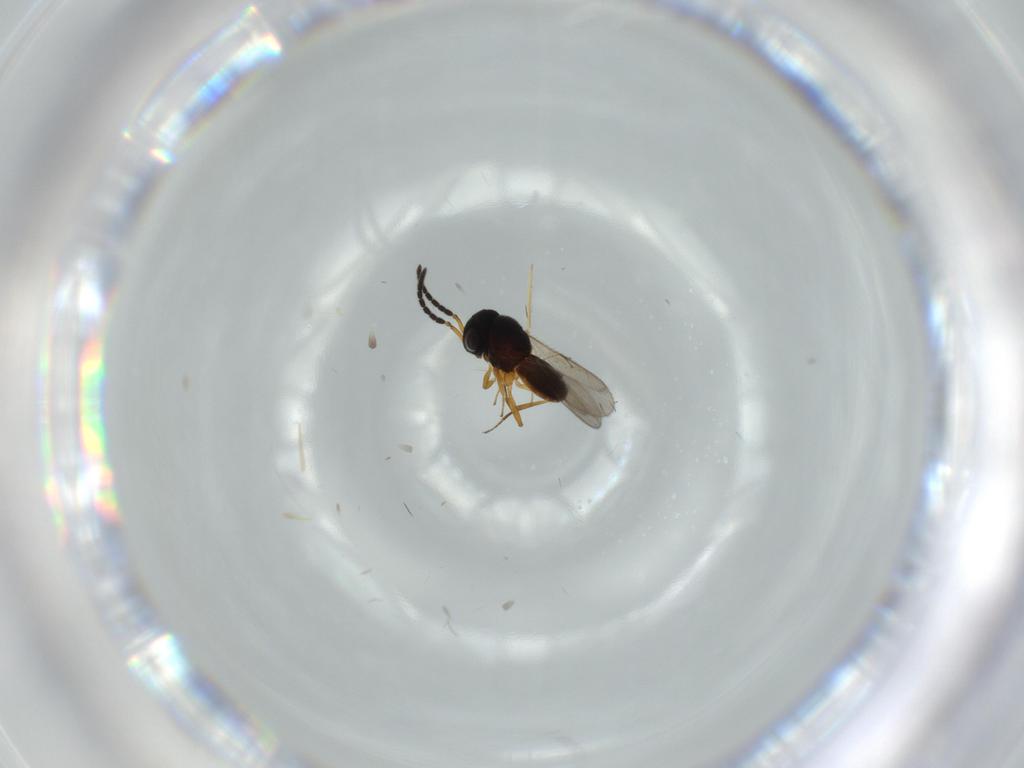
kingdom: Animalia
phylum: Arthropoda
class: Insecta
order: Coleoptera
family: Curculionidae
